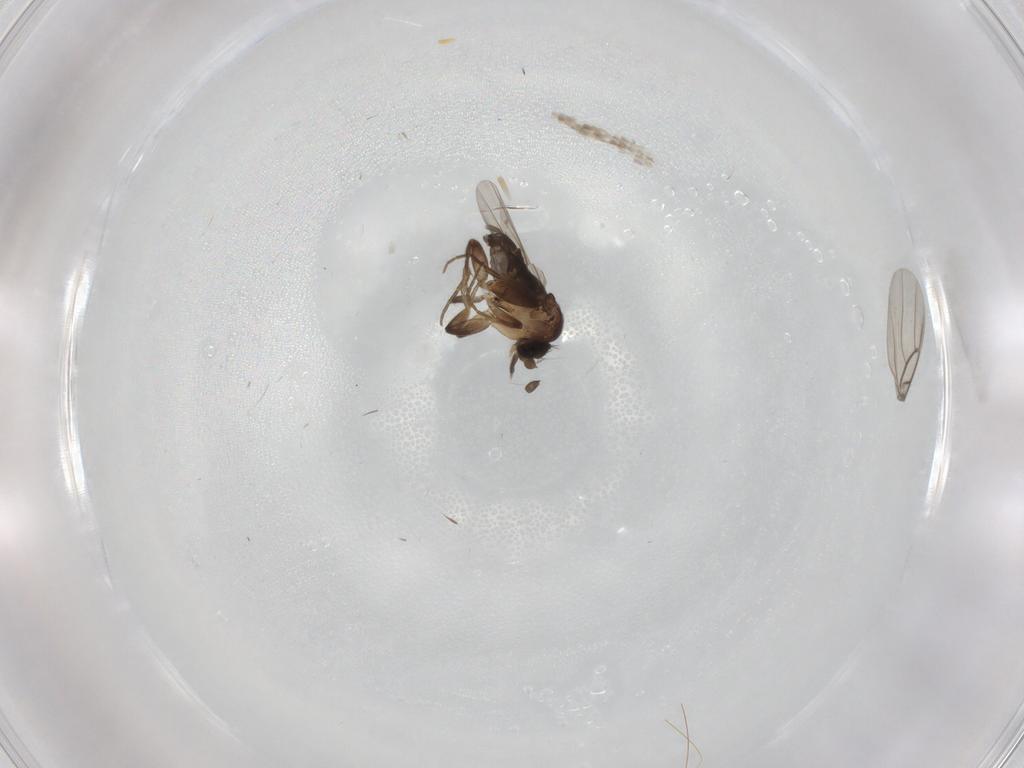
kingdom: Animalia
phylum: Arthropoda
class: Insecta
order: Diptera
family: Phoridae
